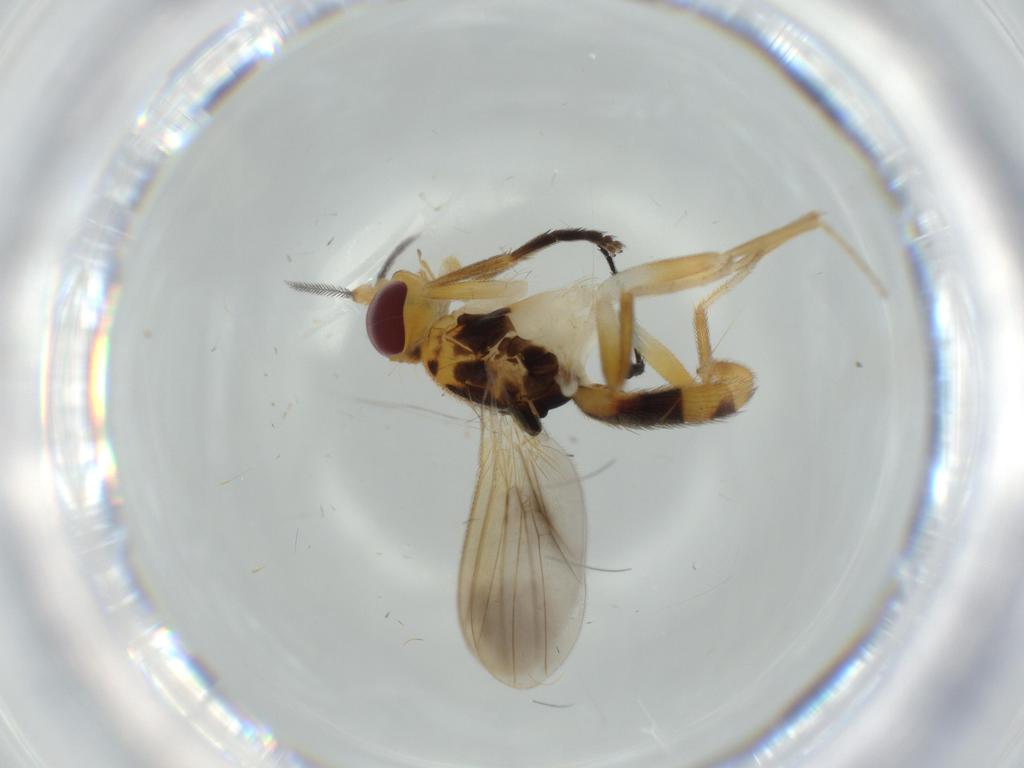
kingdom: Animalia
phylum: Arthropoda
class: Insecta
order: Diptera
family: Clusiidae
